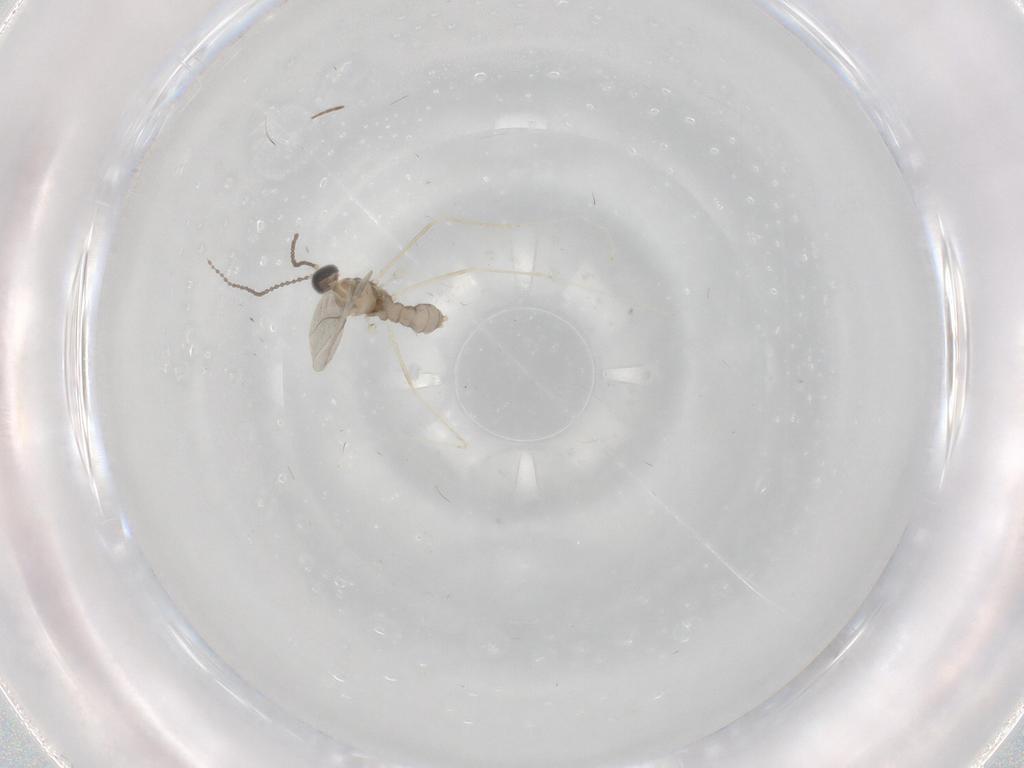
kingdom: Animalia
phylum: Arthropoda
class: Insecta
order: Diptera
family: Phoridae
